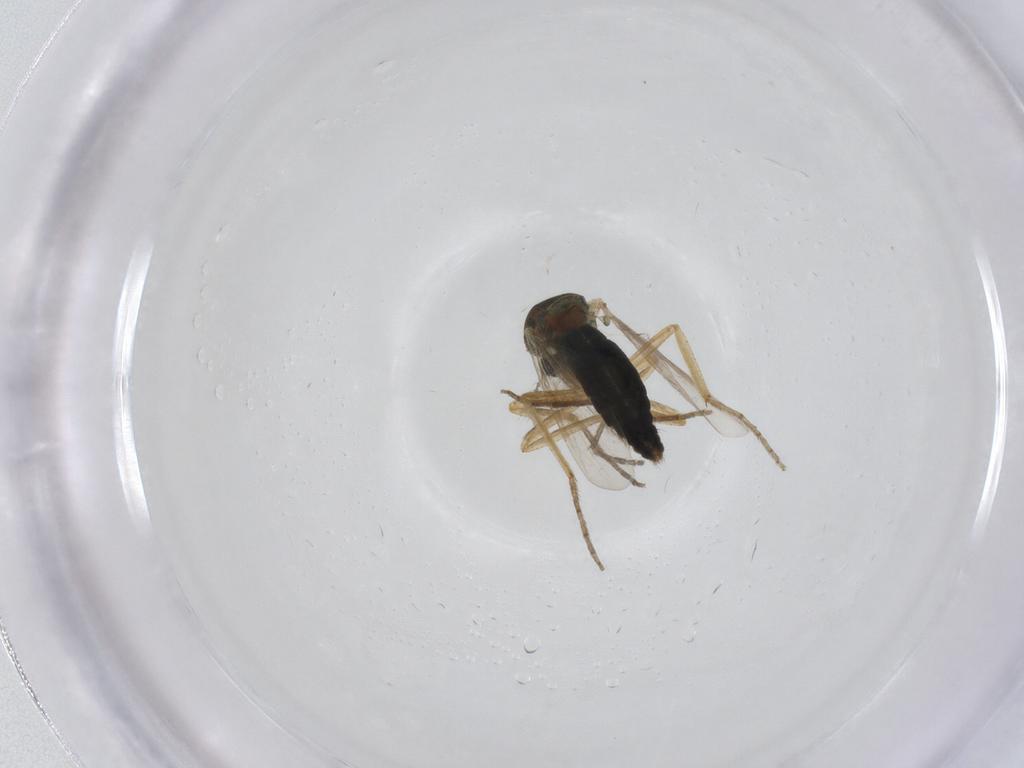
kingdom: Animalia
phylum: Arthropoda
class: Insecta
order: Diptera
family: Ceratopogonidae
